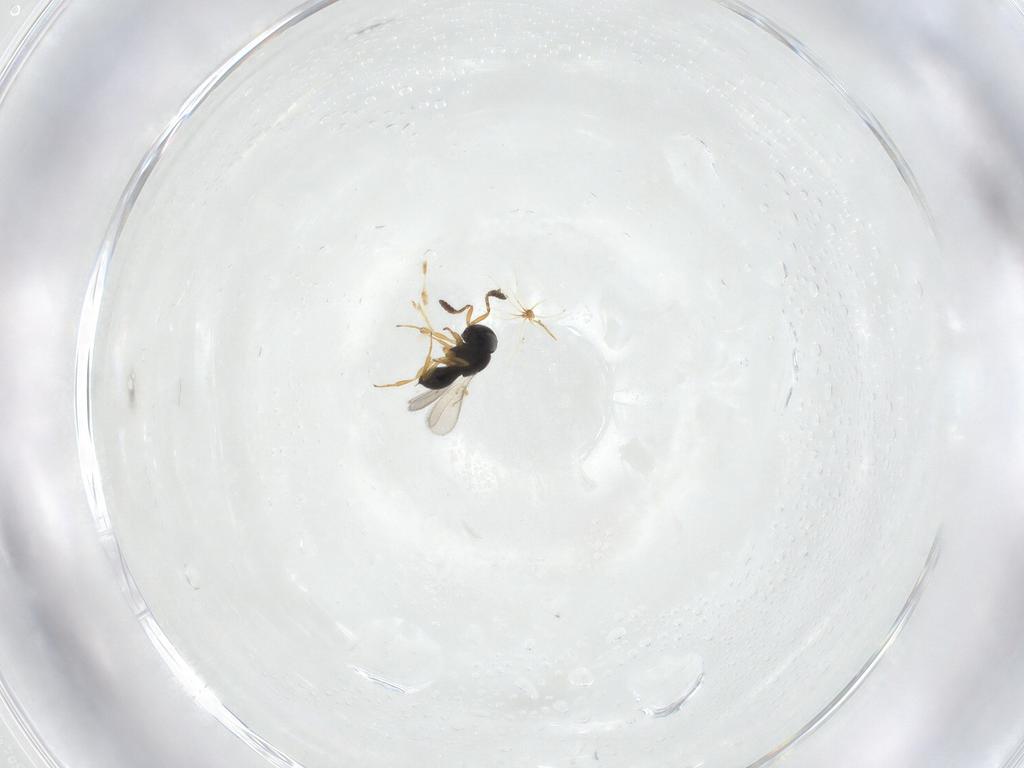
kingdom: Animalia
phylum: Arthropoda
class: Insecta
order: Hymenoptera
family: Scelionidae
